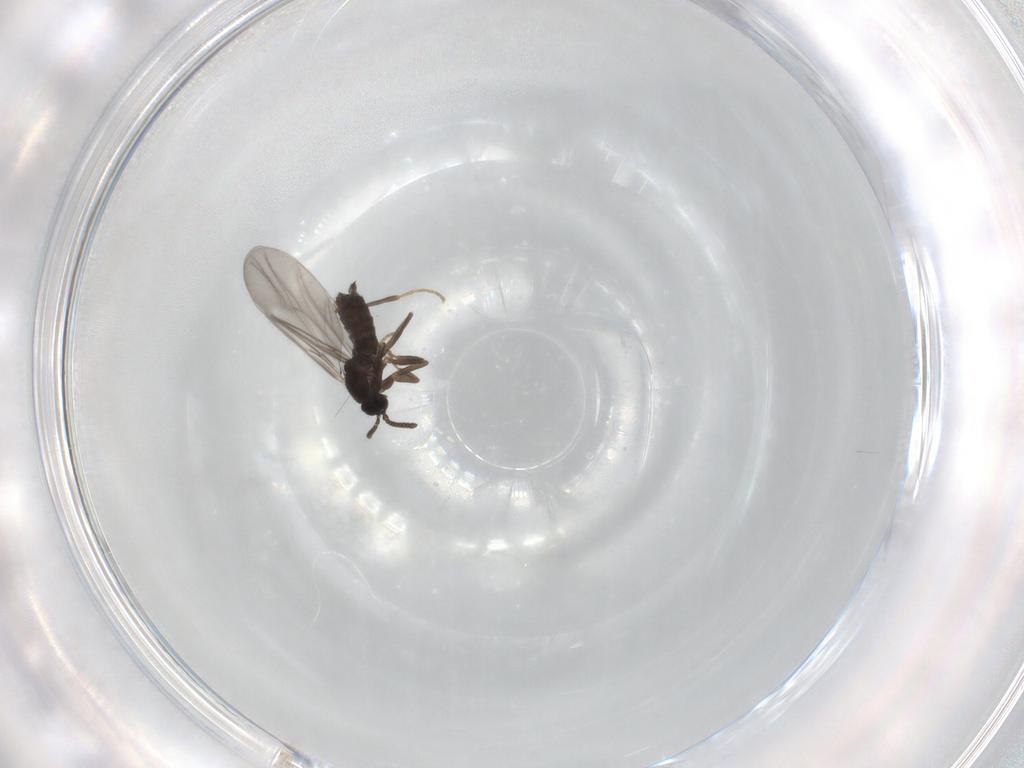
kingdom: Animalia
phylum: Arthropoda
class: Insecta
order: Diptera
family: Scatopsidae
